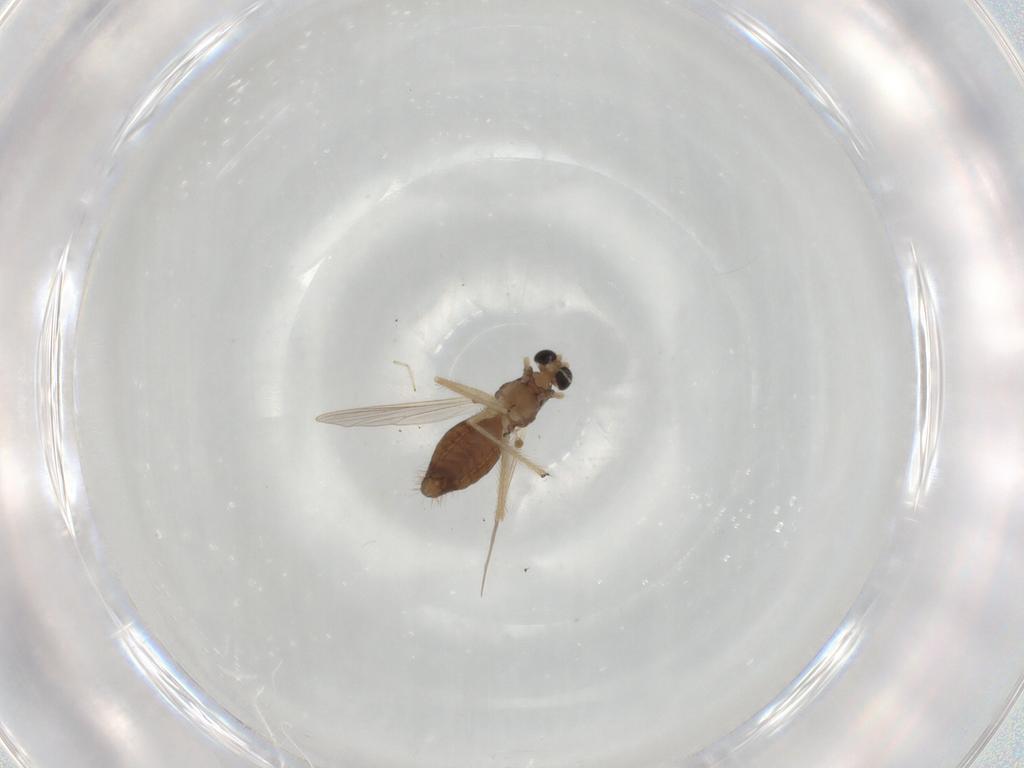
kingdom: Animalia
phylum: Arthropoda
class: Insecta
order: Diptera
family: Chironomidae
